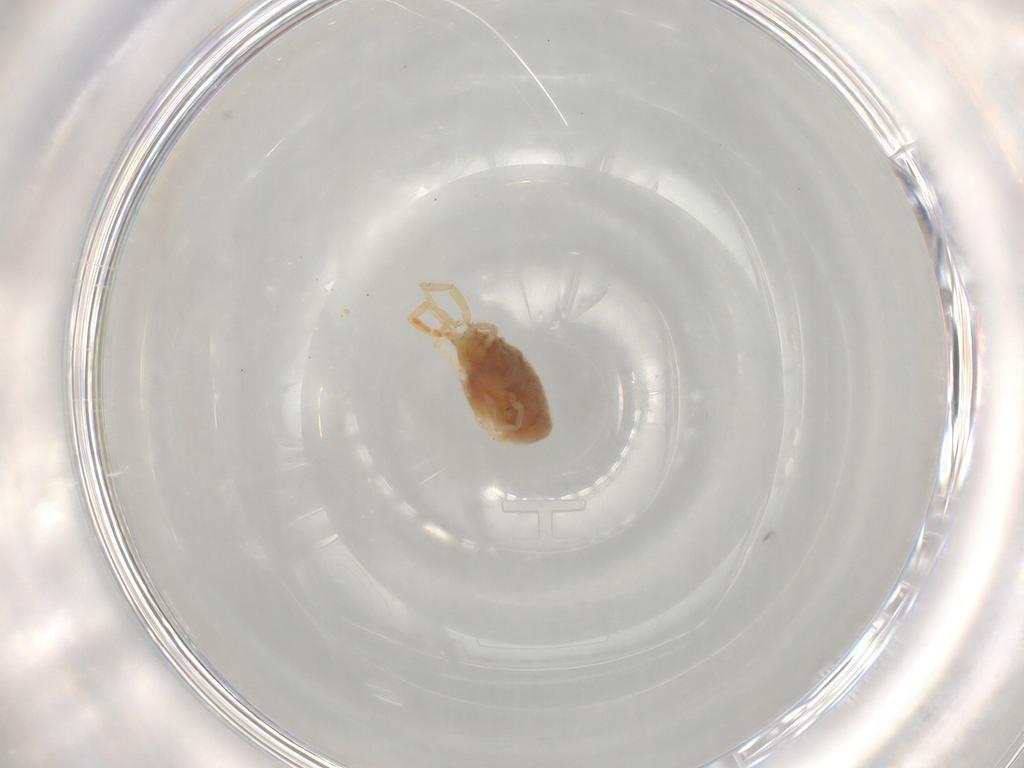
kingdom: Animalia
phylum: Arthropoda
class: Arachnida
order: Trombidiformes
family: Erythraeidae
